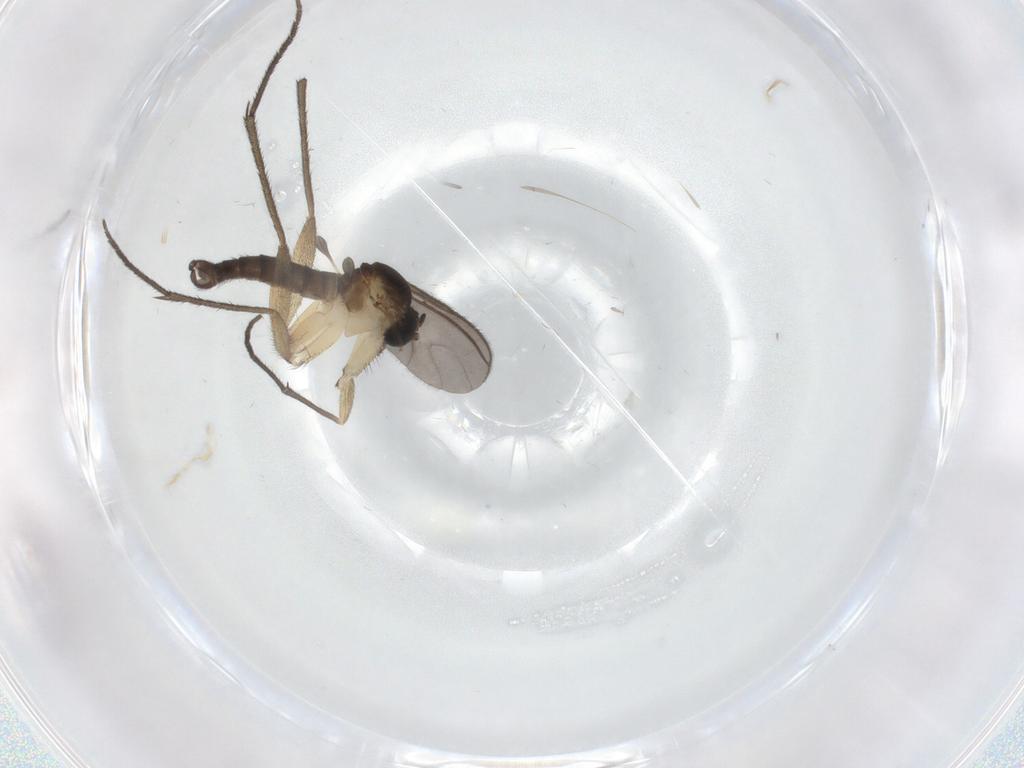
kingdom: Animalia
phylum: Arthropoda
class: Insecta
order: Diptera
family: Sciaridae
